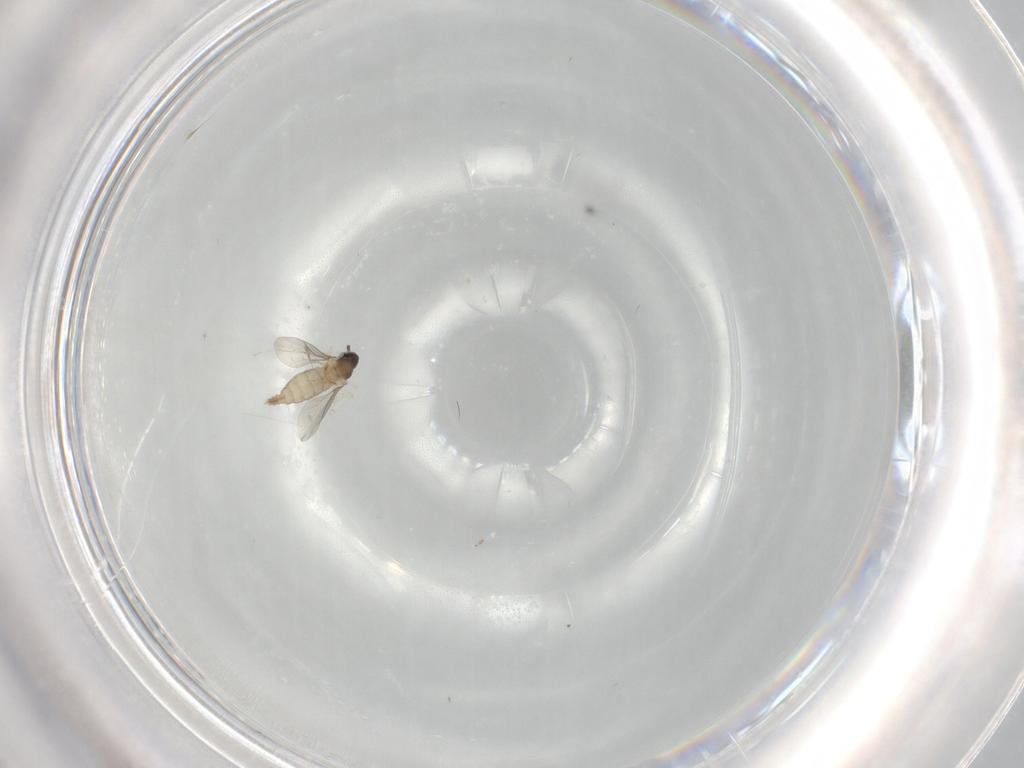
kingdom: Animalia
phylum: Arthropoda
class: Insecta
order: Diptera
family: Cecidomyiidae
